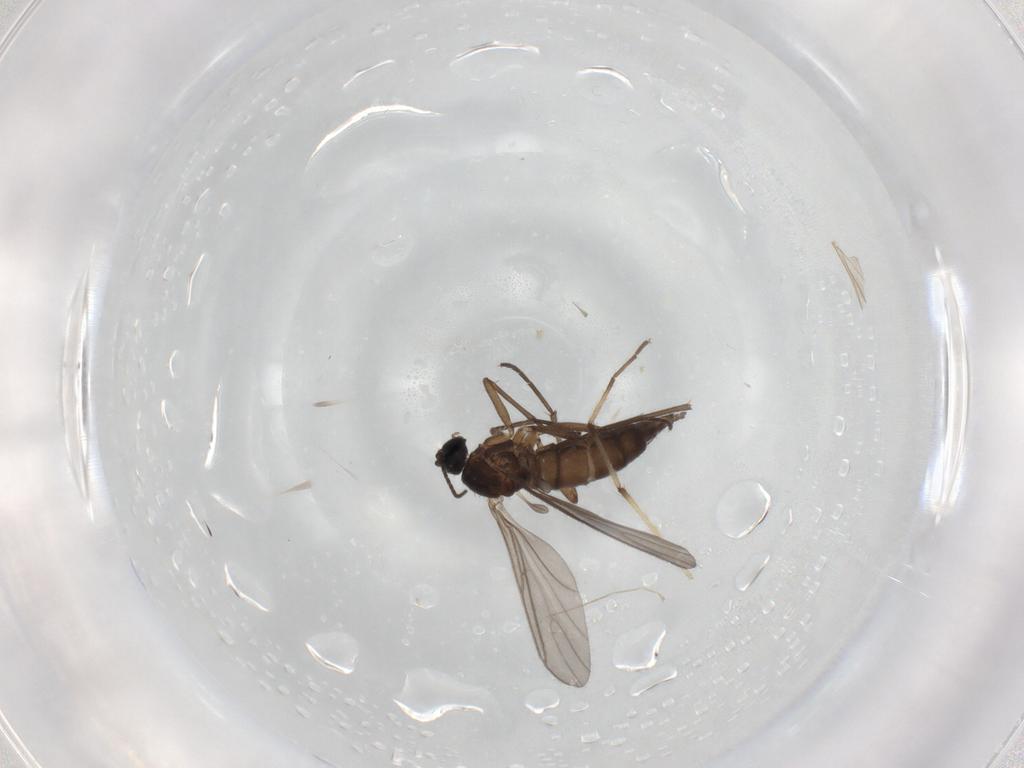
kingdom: Animalia
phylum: Arthropoda
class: Insecta
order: Diptera
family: Sciaridae
